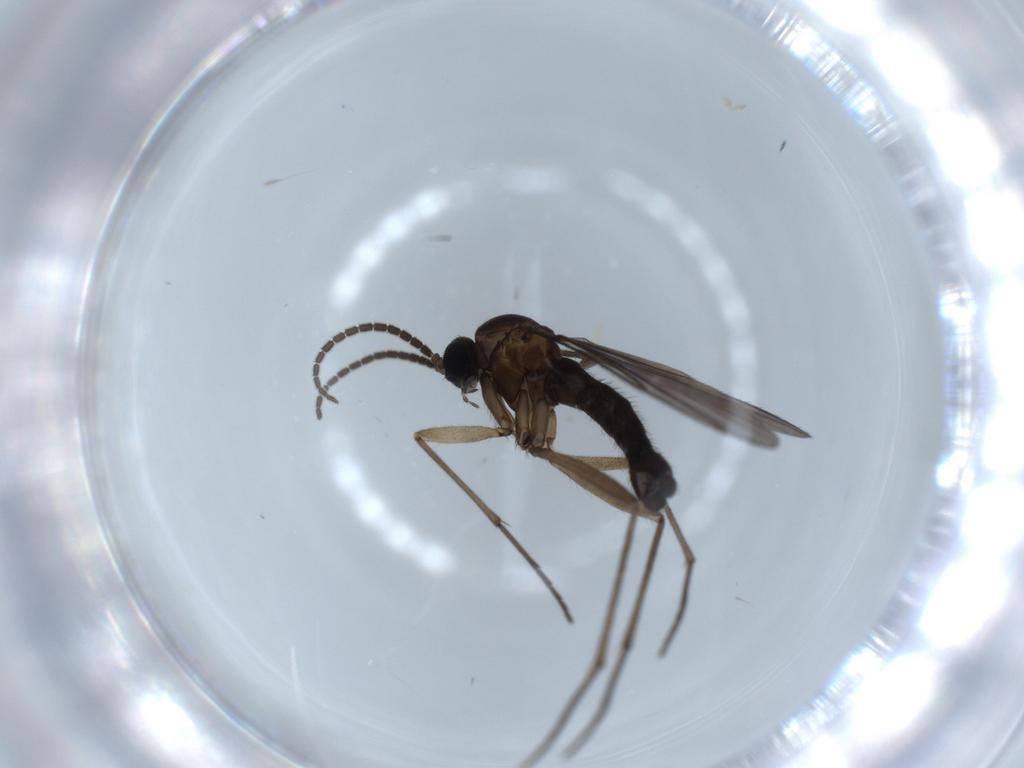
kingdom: Animalia
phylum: Arthropoda
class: Insecta
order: Diptera
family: Sciaridae
